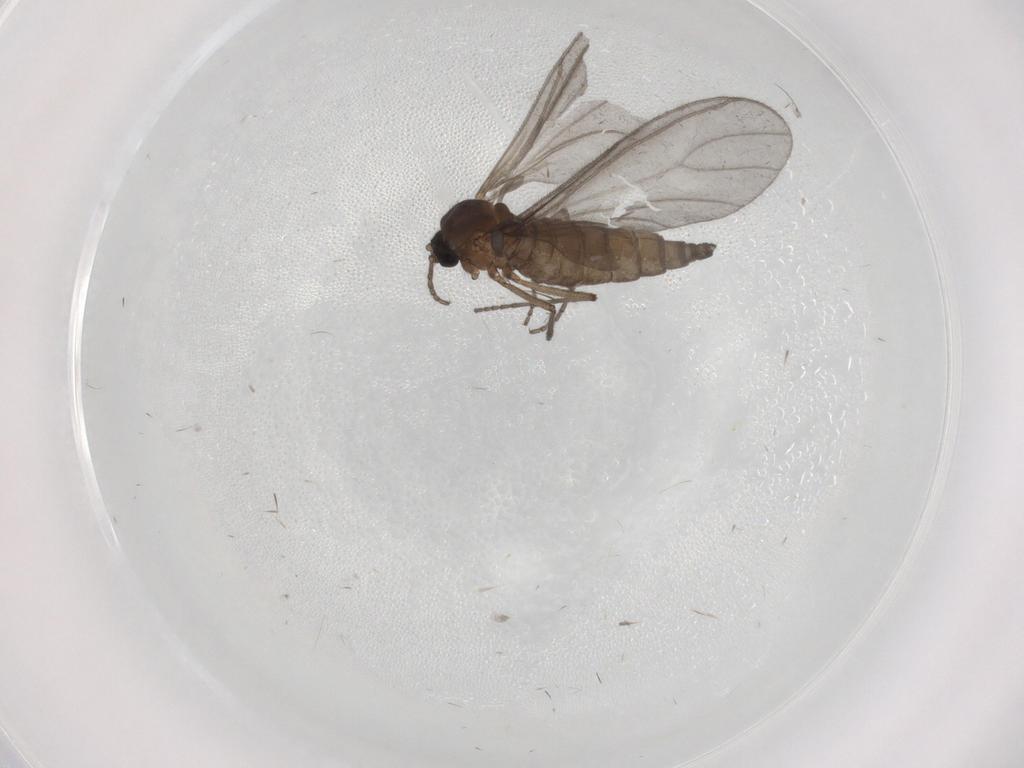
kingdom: Animalia
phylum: Arthropoda
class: Insecta
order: Diptera
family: Sciaridae
